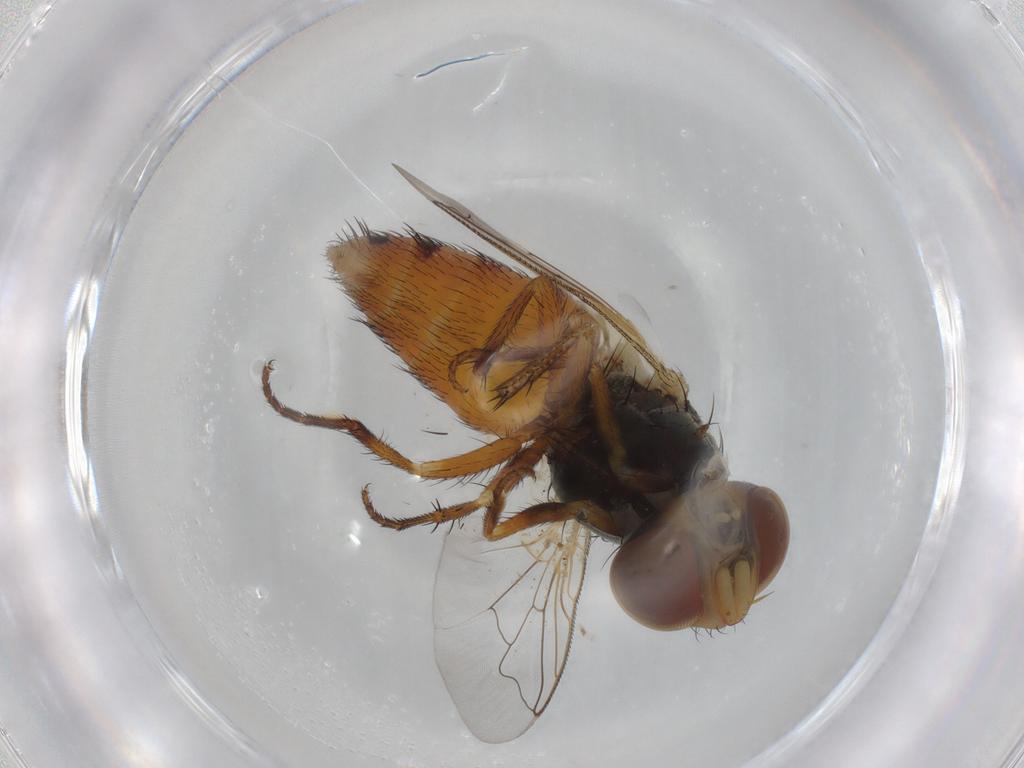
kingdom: Animalia
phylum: Arthropoda
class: Insecta
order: Diptera
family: Sarcophagidae
